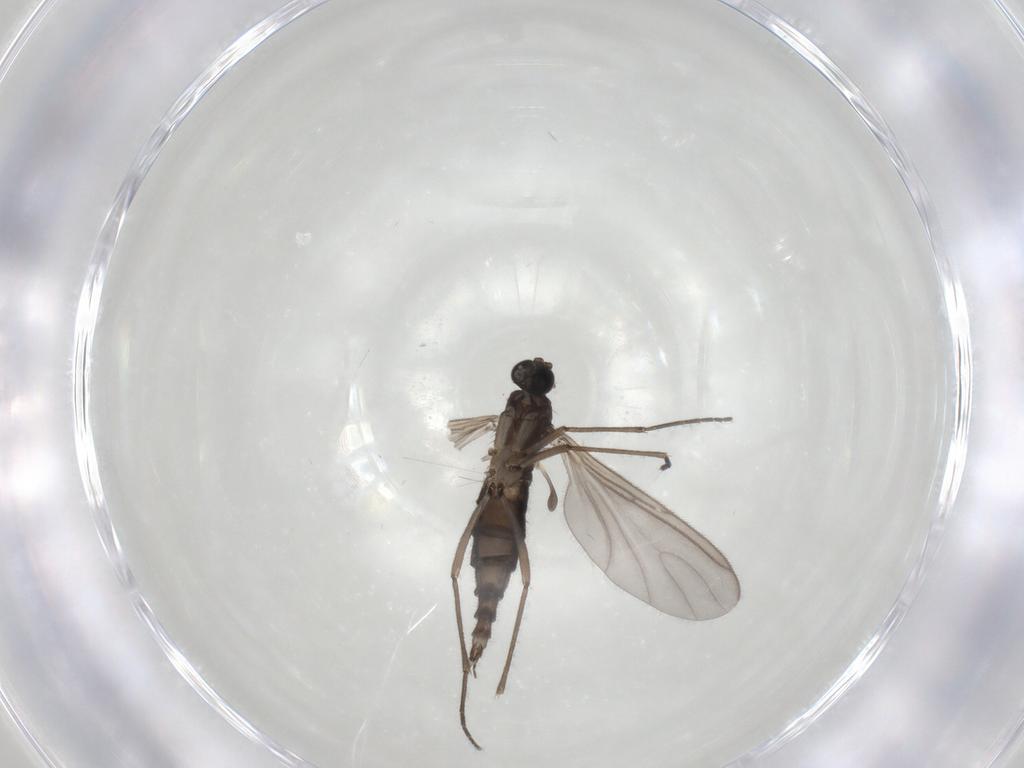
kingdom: Animalia
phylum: Arthropoda
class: Insecta
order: Diptera
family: Sciaridae
